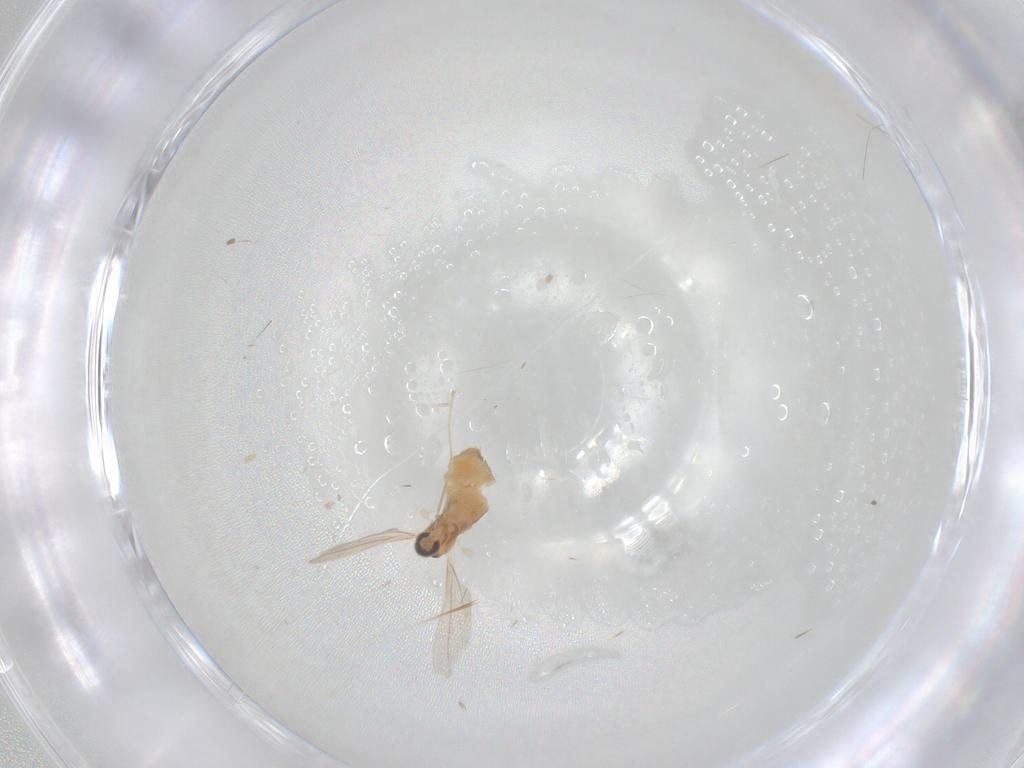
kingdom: Animalia
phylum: Arthropoda
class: Insecta
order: Diptera
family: Cecidomyiidae
